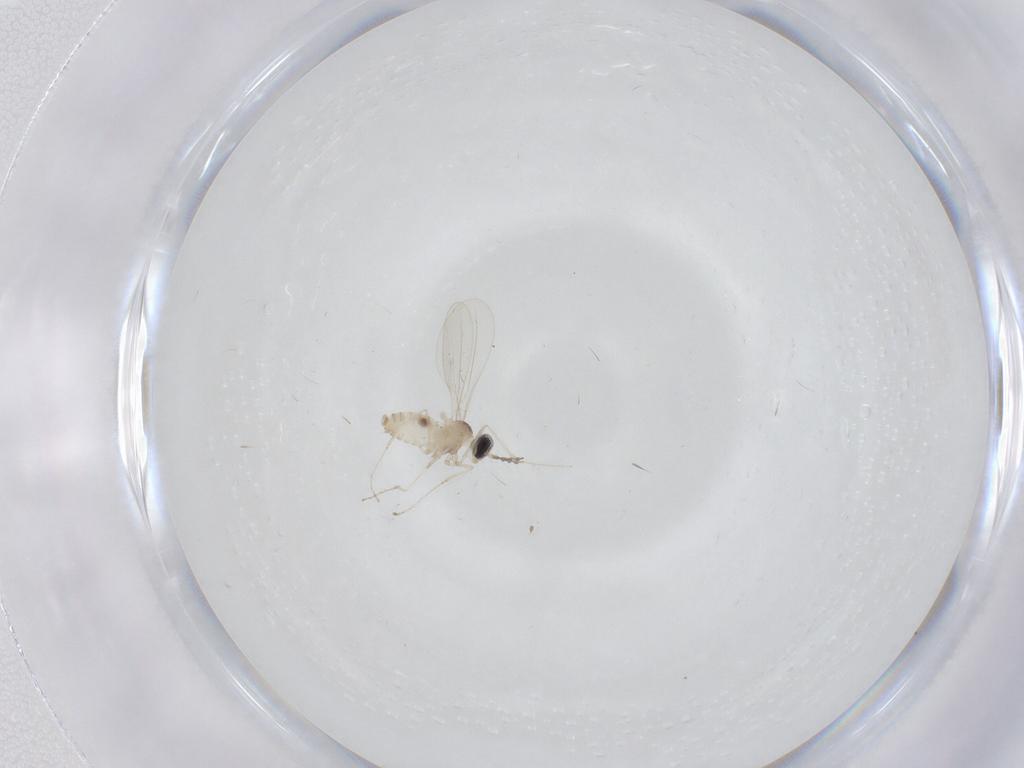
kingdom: Animalia
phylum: Arthropoda
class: Insecta
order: Diptera
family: Cecidomyiidae
